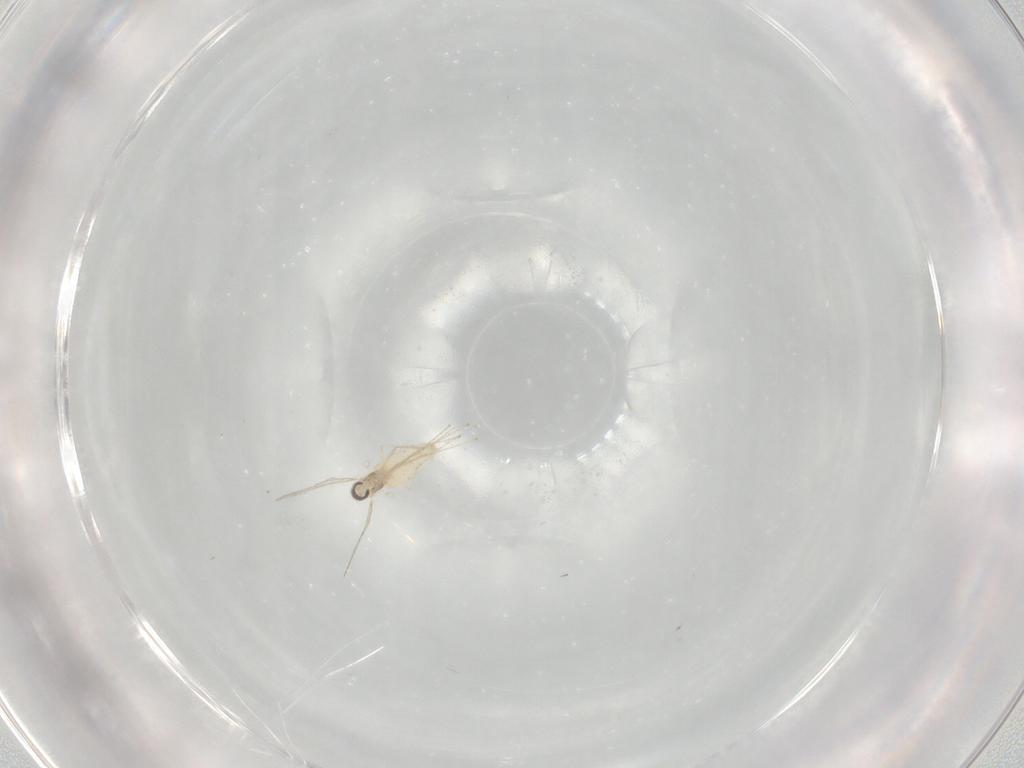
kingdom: Animalia
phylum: Arthropoda
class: Insecta
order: Diptera
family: Cecidomyiidae
